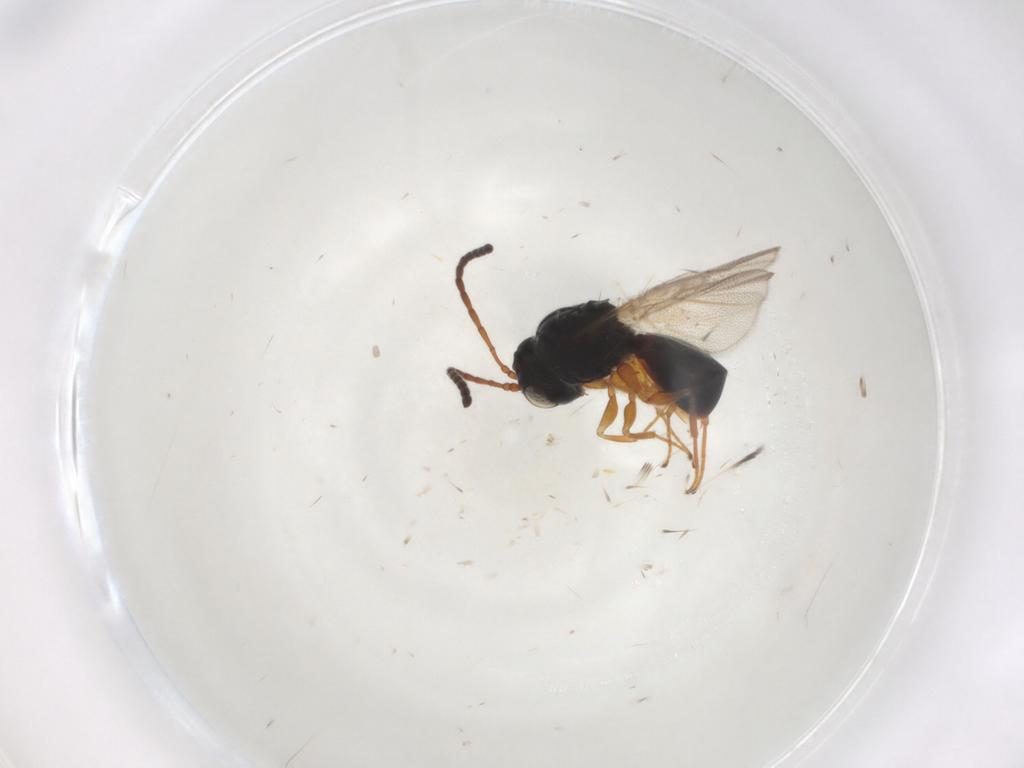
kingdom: Animalia
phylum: Arthropoda
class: Insecta
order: Hymenoptera
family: Figitidae
